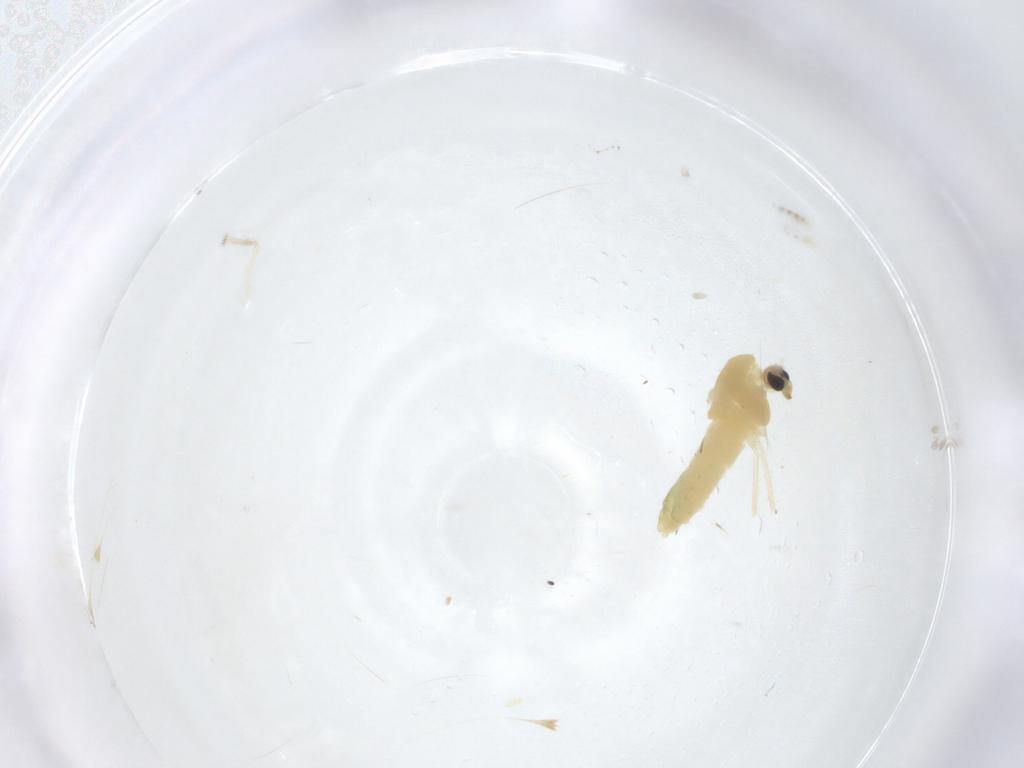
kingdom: Animalia
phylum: Arthropoda
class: Insecta
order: Diptera
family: Chironomidae
